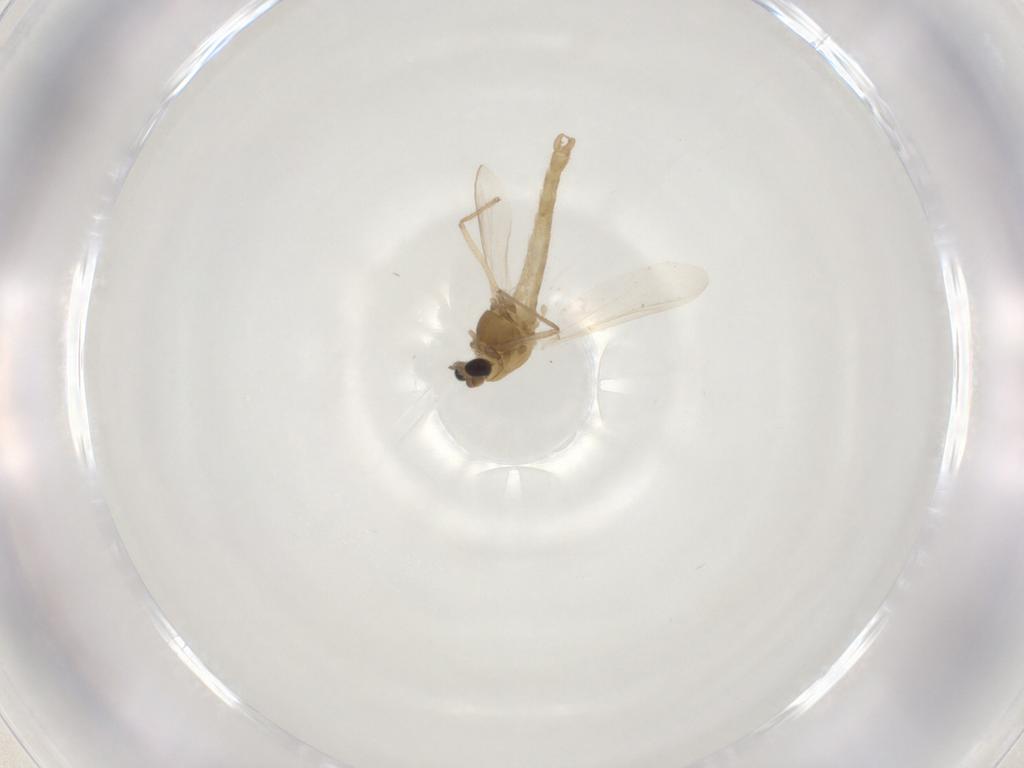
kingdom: Animalia
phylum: Arthropoda
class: Insecta
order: Diptera
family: Chironomidae
